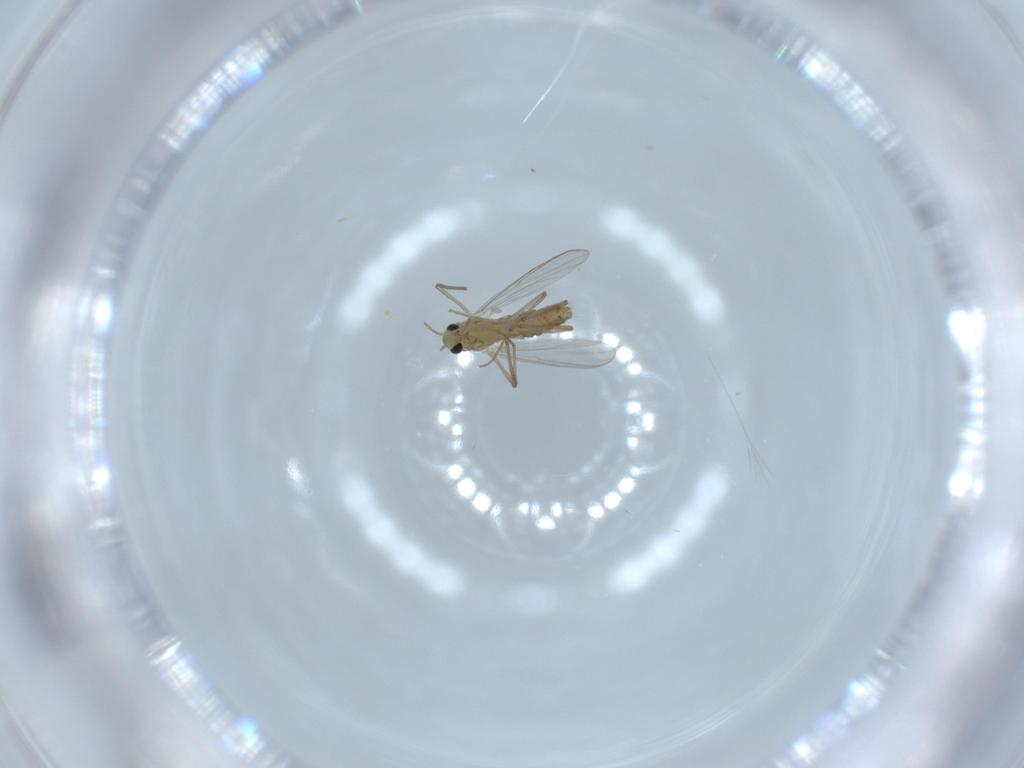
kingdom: Animalia
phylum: Arthropoda
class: Insecta
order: Diptera
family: Chironomidae
